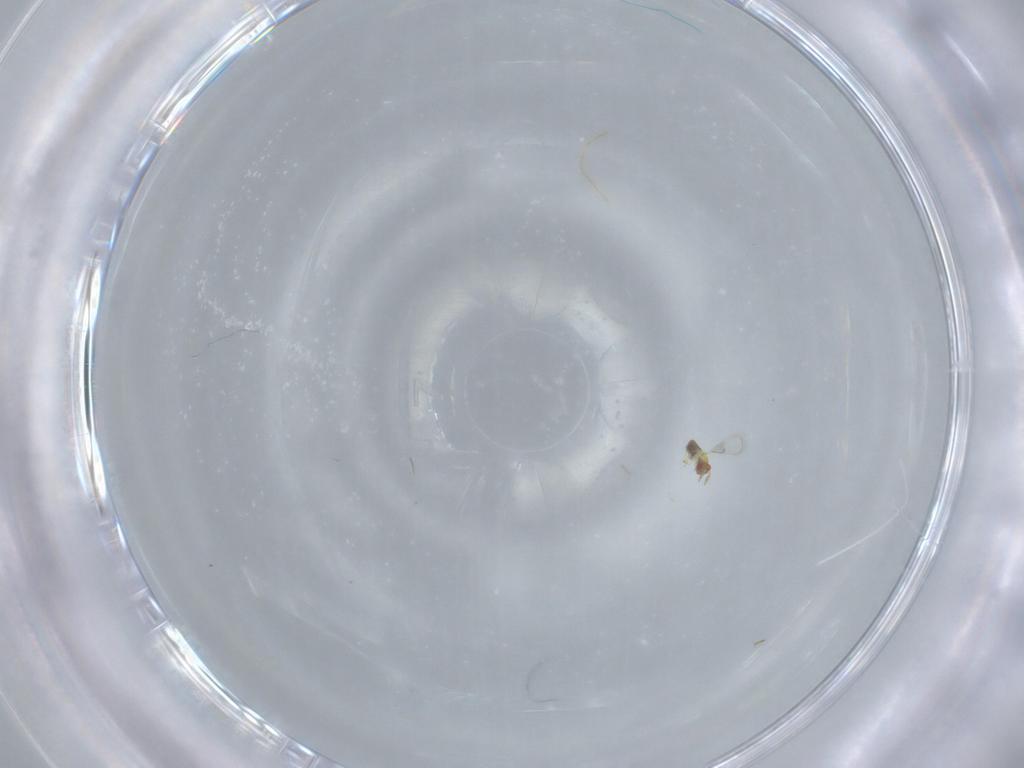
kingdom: Animalia
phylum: Arthropoda
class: Insecta
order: Hymenoptera
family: Trichogrammatidae
